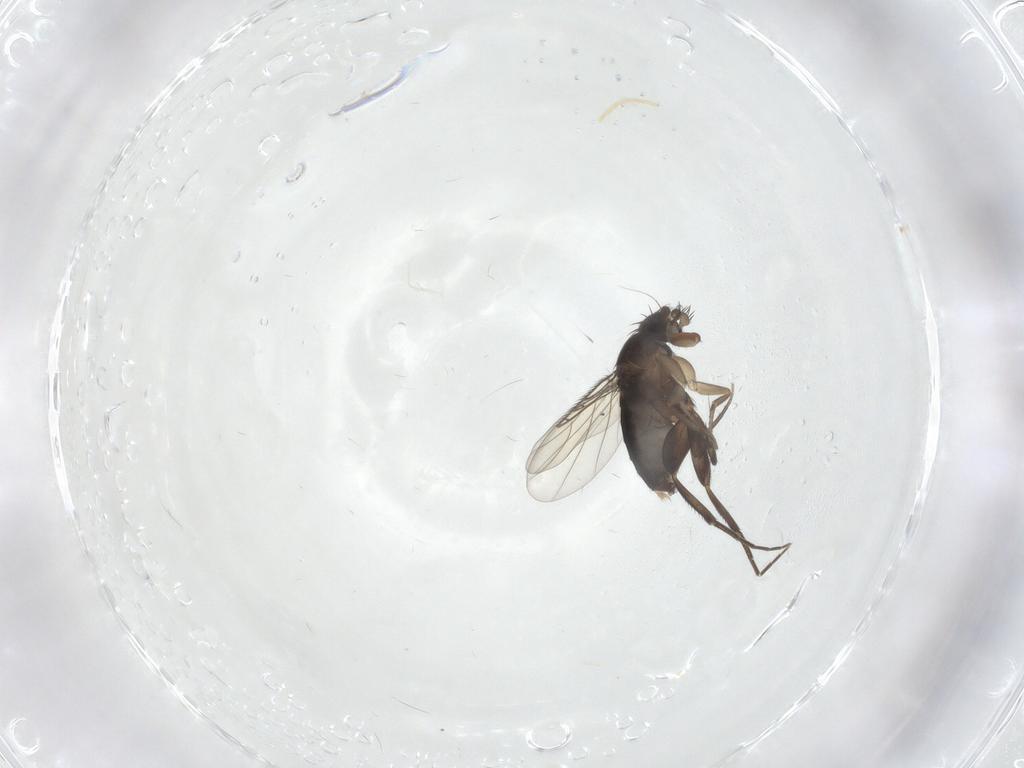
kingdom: Animalia
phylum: Arthropoda
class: Insecta
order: Diptera
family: Phoridae
